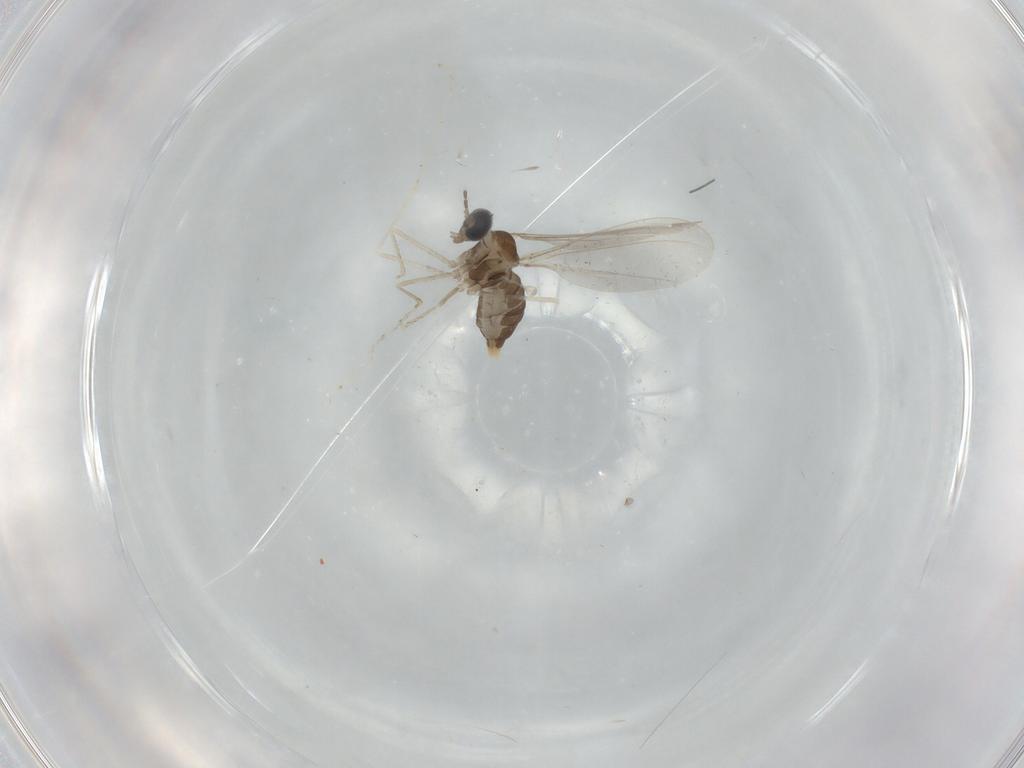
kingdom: Animalia
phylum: Arthropoda
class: Insecta
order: Diptera
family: Cecidomyiidae
